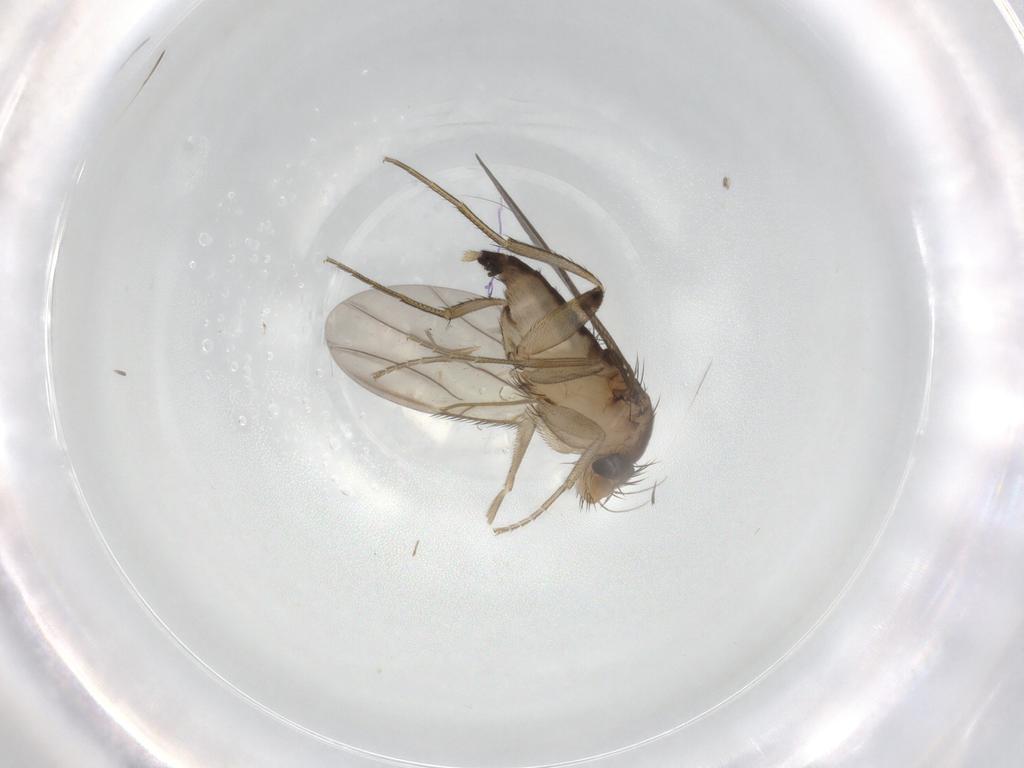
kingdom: Animalia
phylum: Arthropoda
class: Insecta
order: Diptera
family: Phoridae
